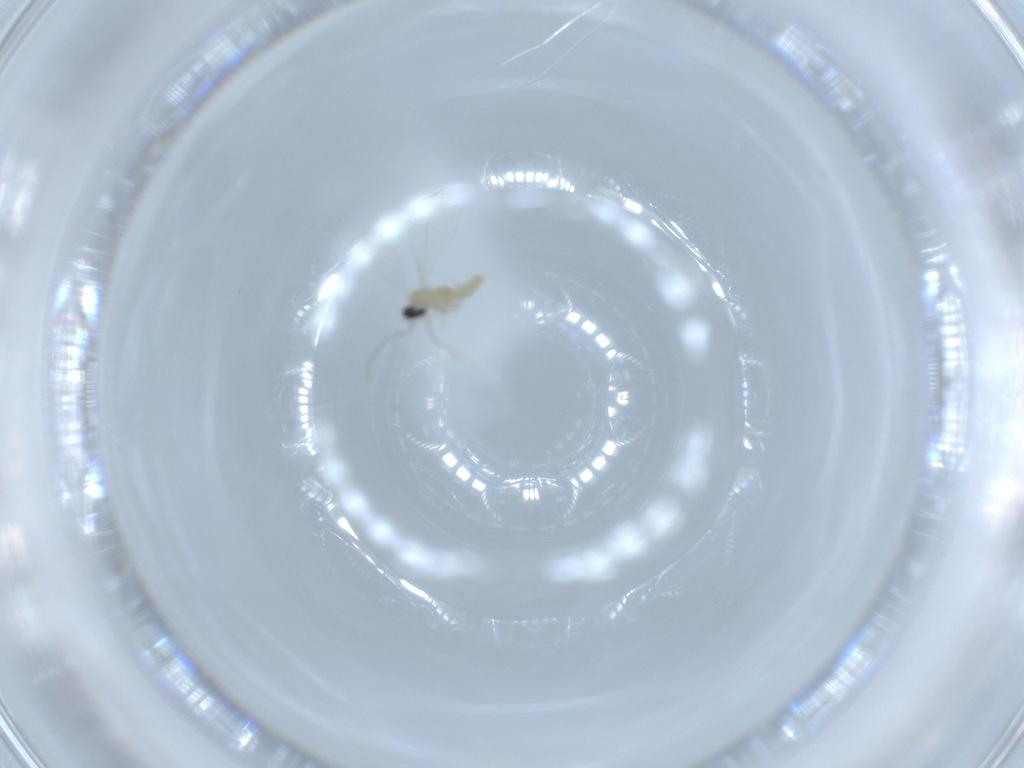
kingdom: Animalia
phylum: Arthropoda
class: Insecta
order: Diptera
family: Cecidomyiidae
